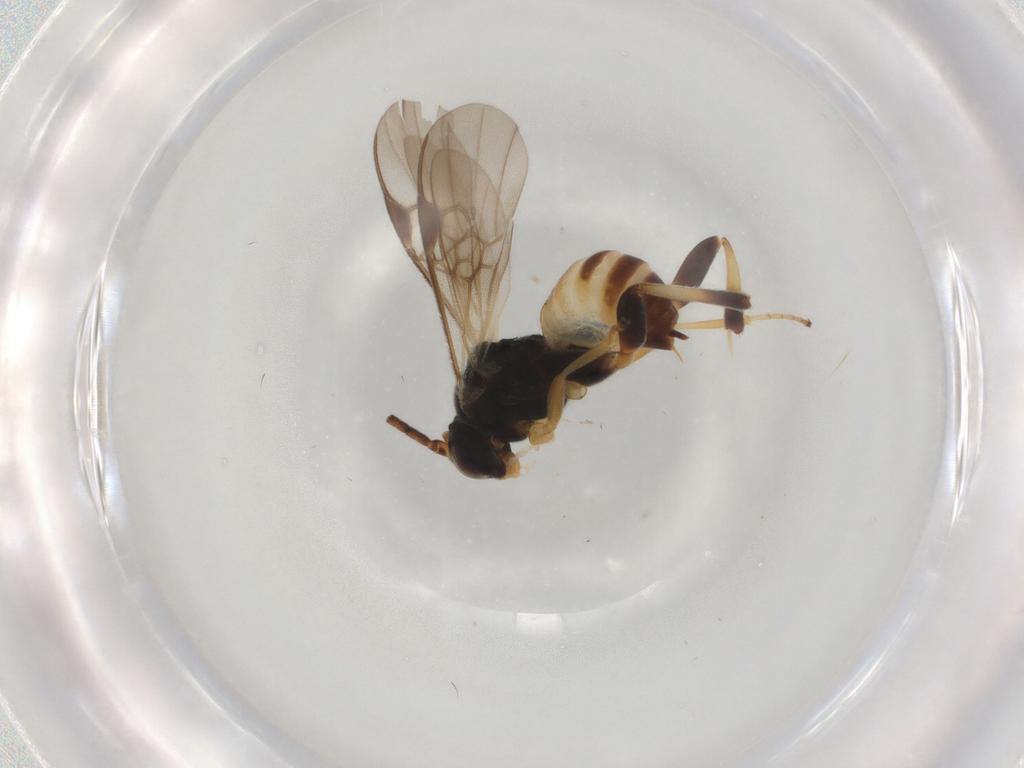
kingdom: Animalia
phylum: Arthropoda
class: Insecta
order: Hymenoptera
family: Braconidae
